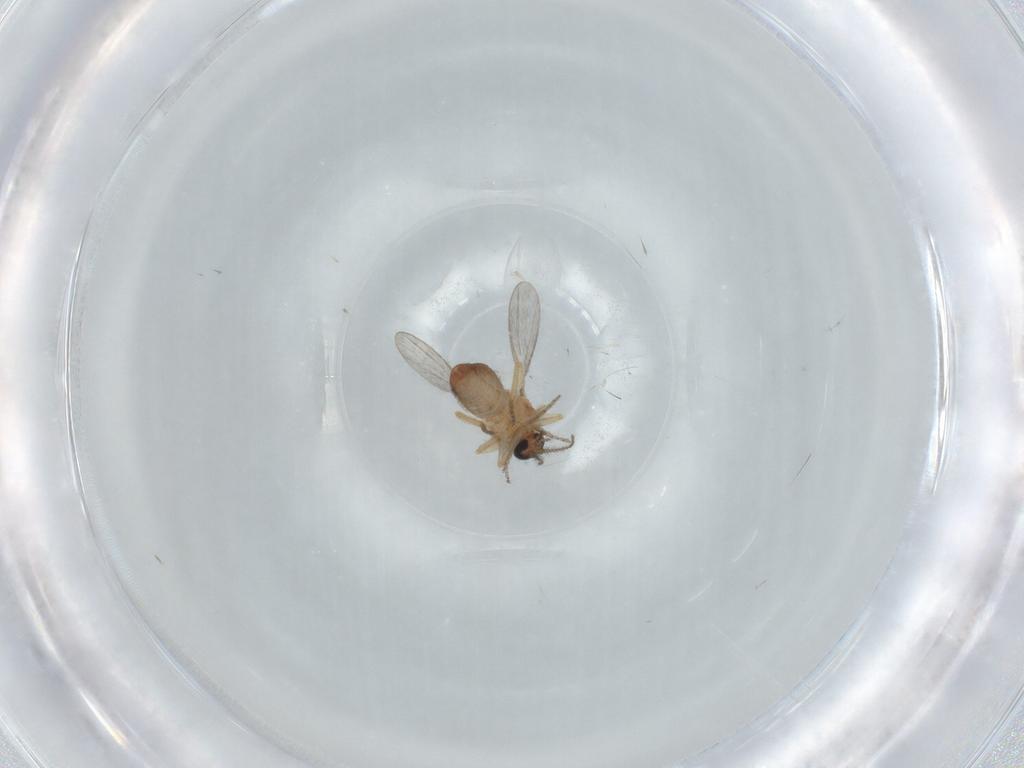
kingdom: Animalia
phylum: Arthropoda
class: Insecta
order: Diptera
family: Ceratopogonidae
